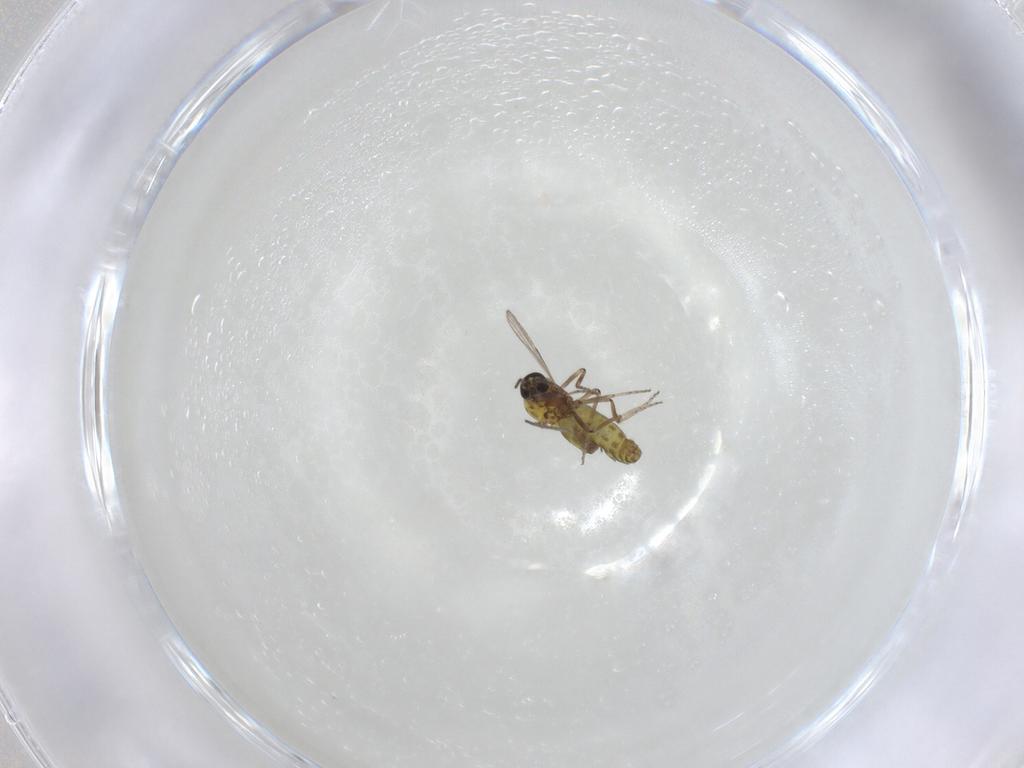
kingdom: Animalia
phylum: Arthropoda
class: Insecta
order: Diptera
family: Ceratopogonidae
